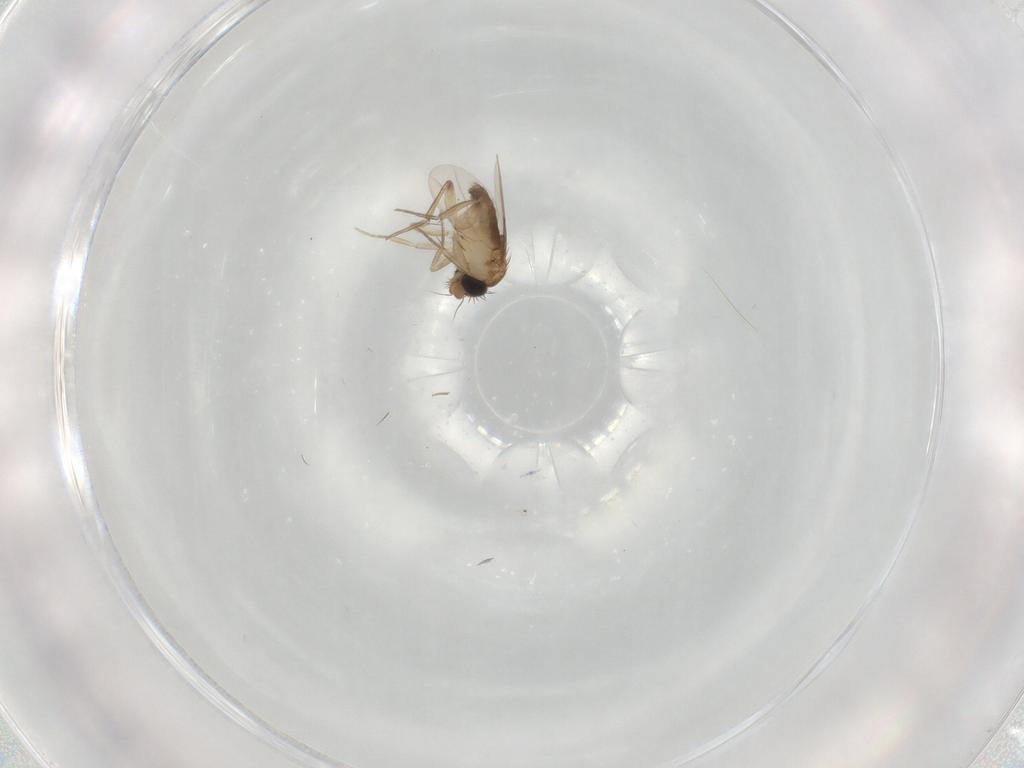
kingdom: Animalia
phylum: Arthropoda
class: Insecta
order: Diptera
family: Phoridae
